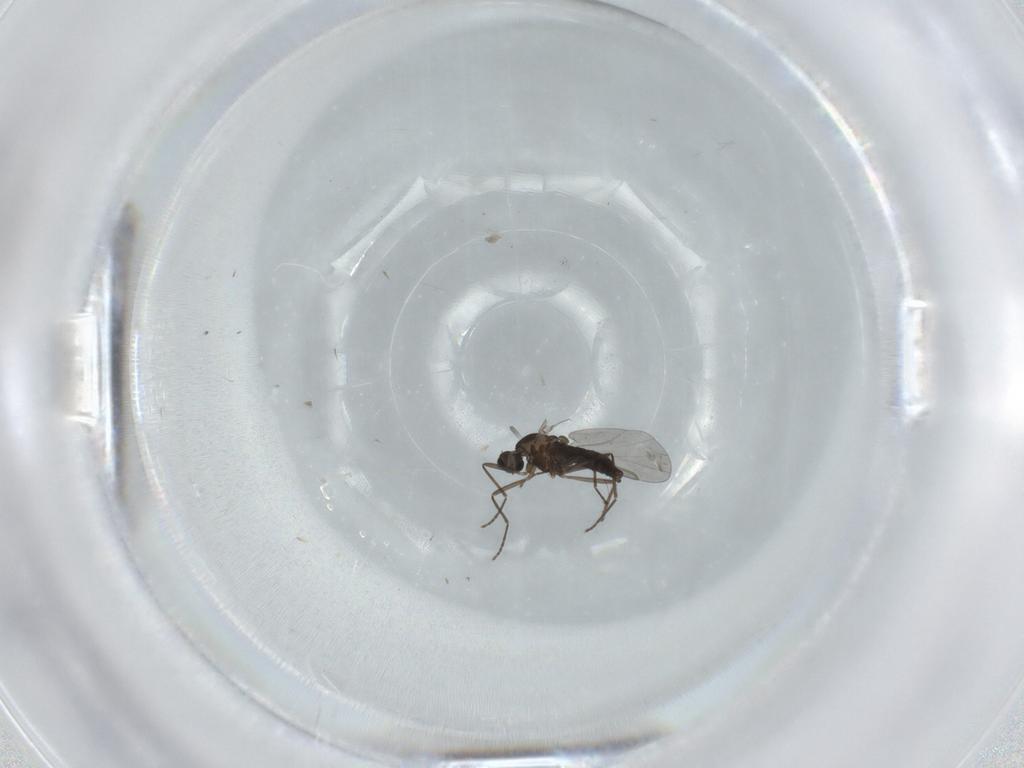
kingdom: Animalia
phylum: Arthropoda
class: Insecta
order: Diptera
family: Cecidomyiidae
